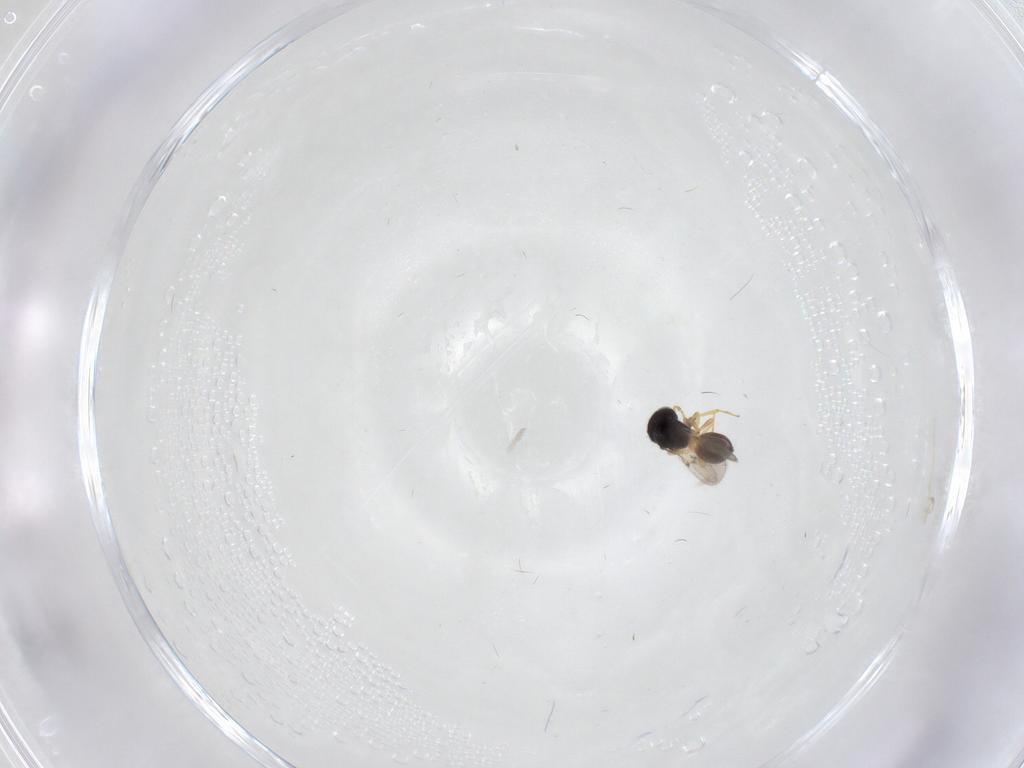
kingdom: Animalia
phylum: Arthropoda
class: Insecta
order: Hymenoptera
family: Scelionidae
